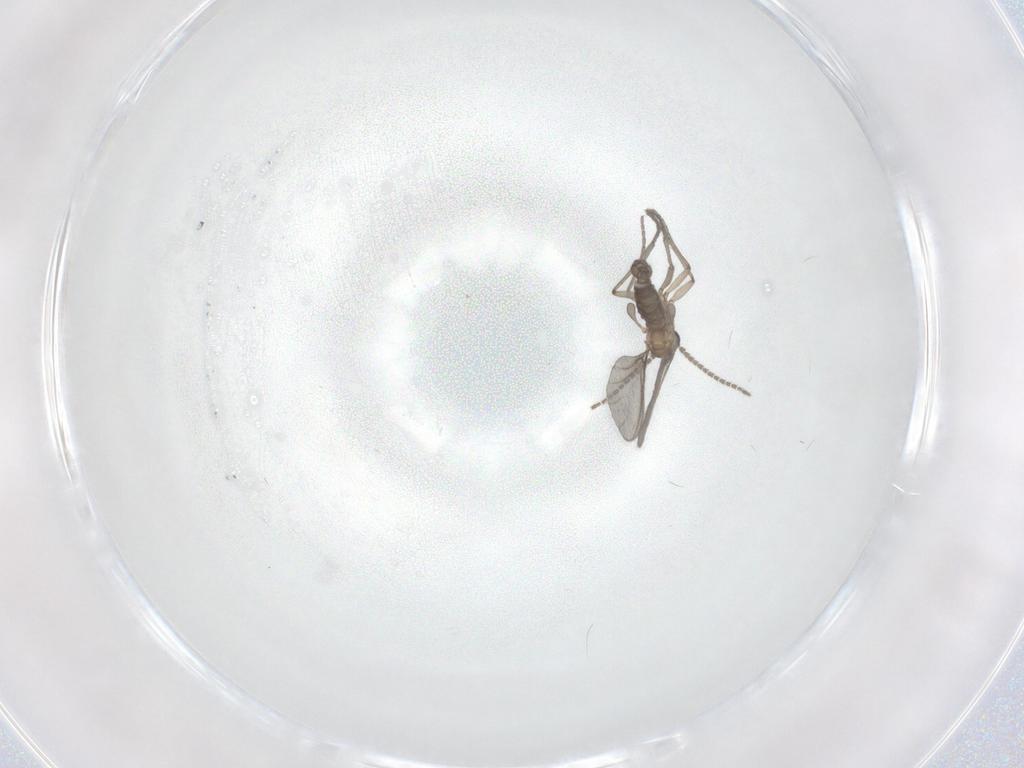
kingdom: Animalia
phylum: Arthropoda
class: Insecta
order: Diptera
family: Sciaridae
